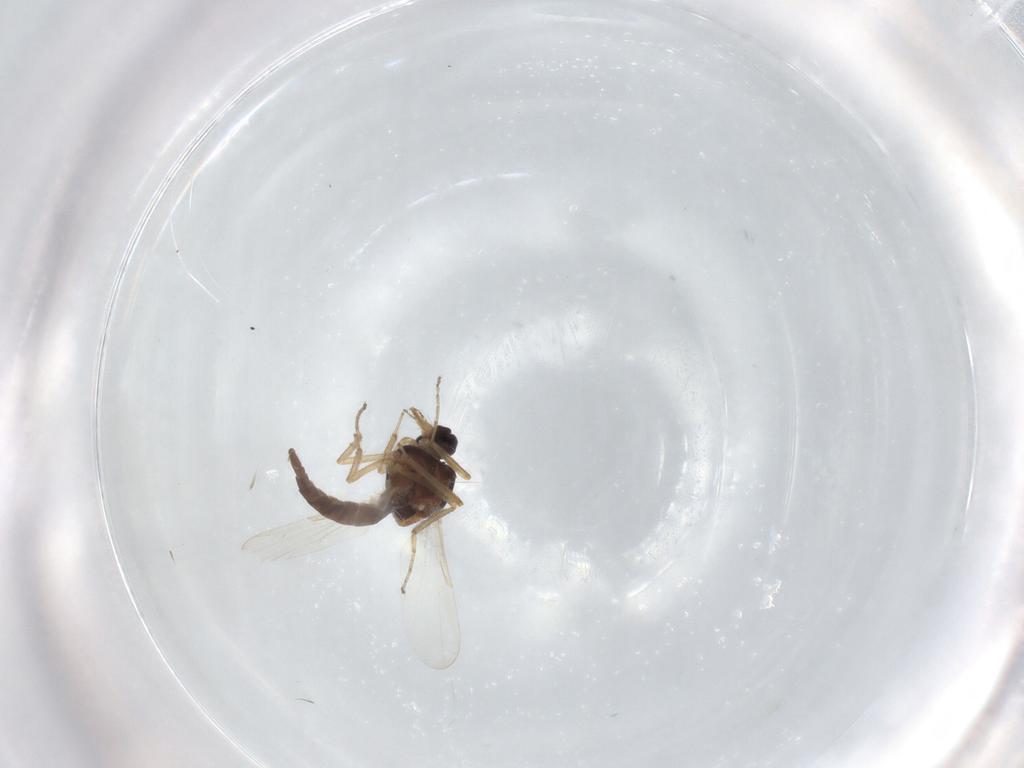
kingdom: Animalia
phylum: Arthropoda
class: Insecta
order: Diptera
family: Ceratopogonidae
